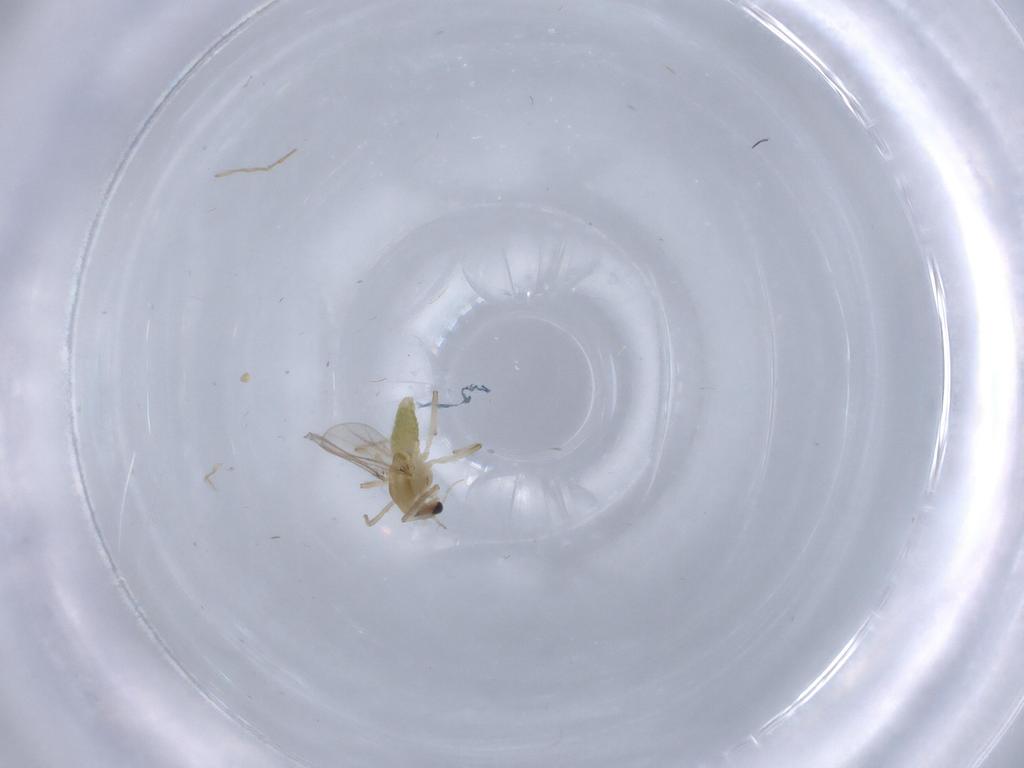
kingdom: Animalia
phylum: Arthropoda
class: Insecta
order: Diptera
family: Chironomidae
